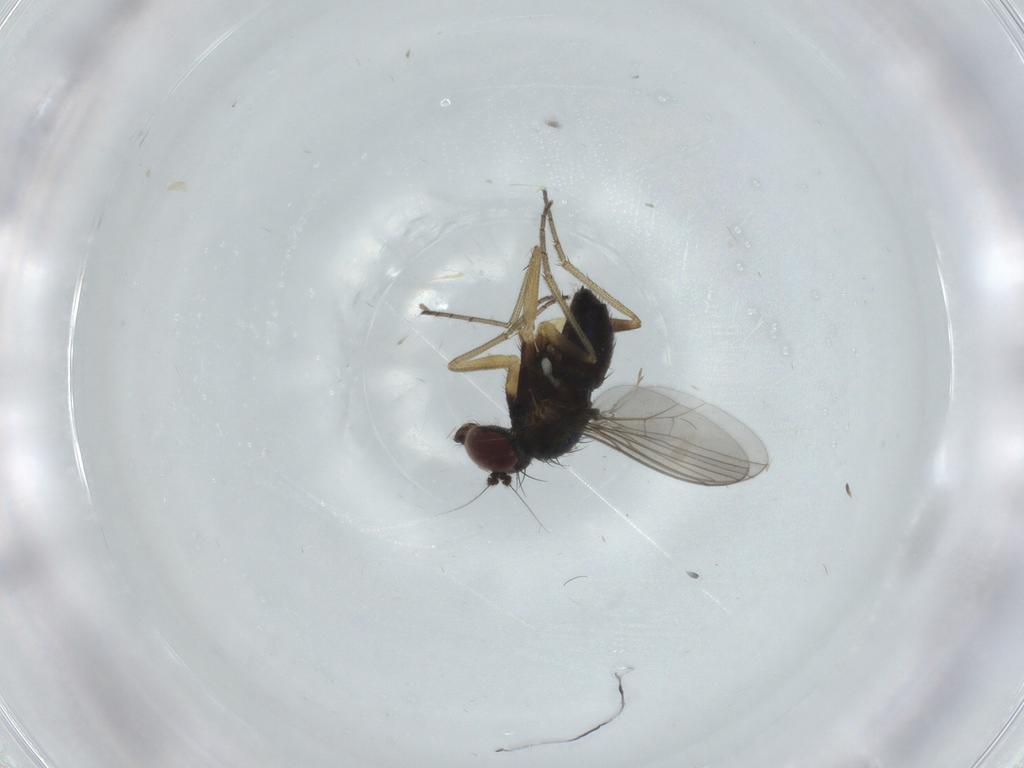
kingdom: Animalia
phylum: Arthropoda
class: Insecta
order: Diptera
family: Dolichopodidae
